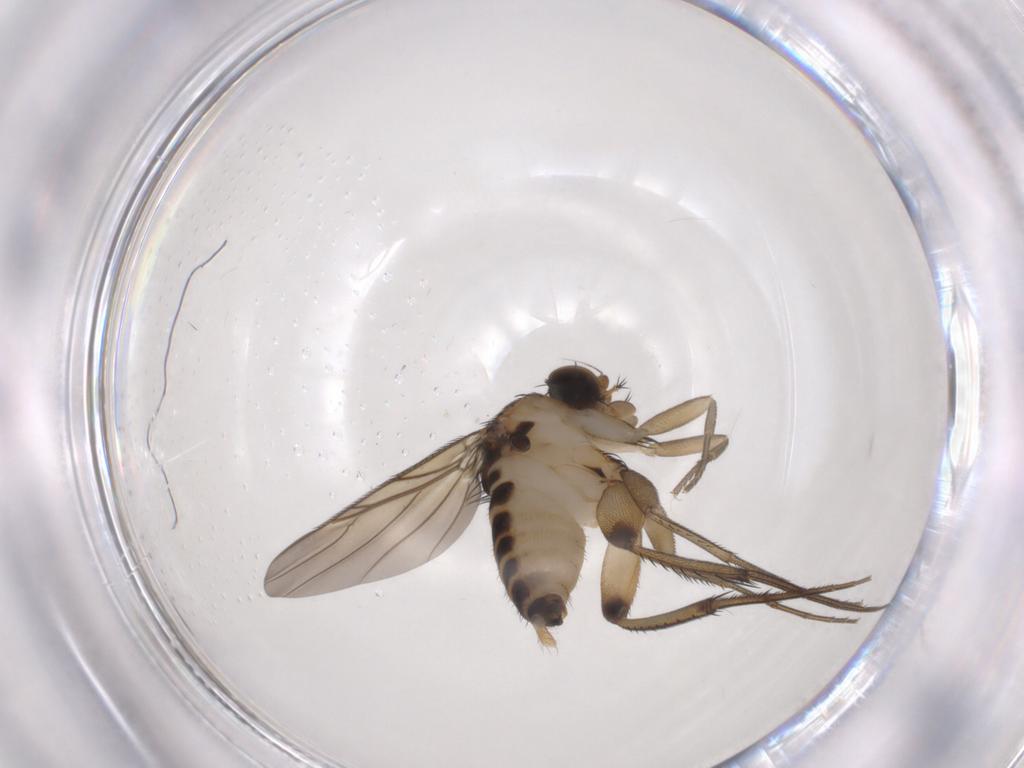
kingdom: Animalia
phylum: Arthropoda
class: Insecta
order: Diptera
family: Phoridae
